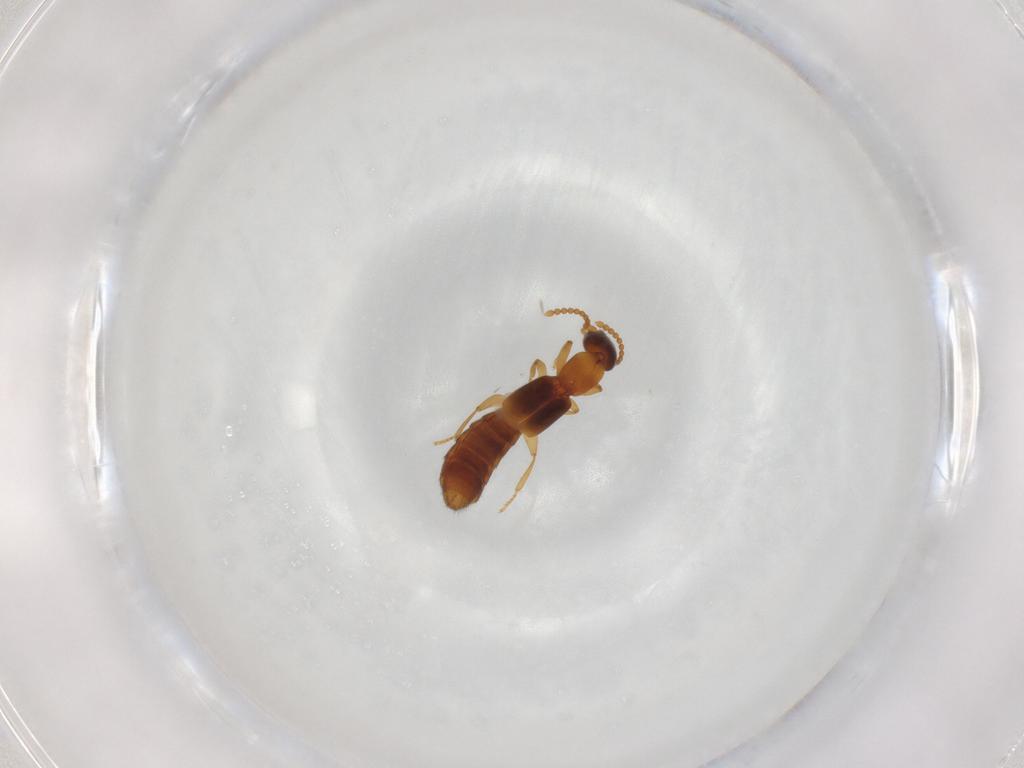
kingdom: Animalia
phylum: Arthropoda
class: Insecta
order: Coleoptera
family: Staphylinidae
